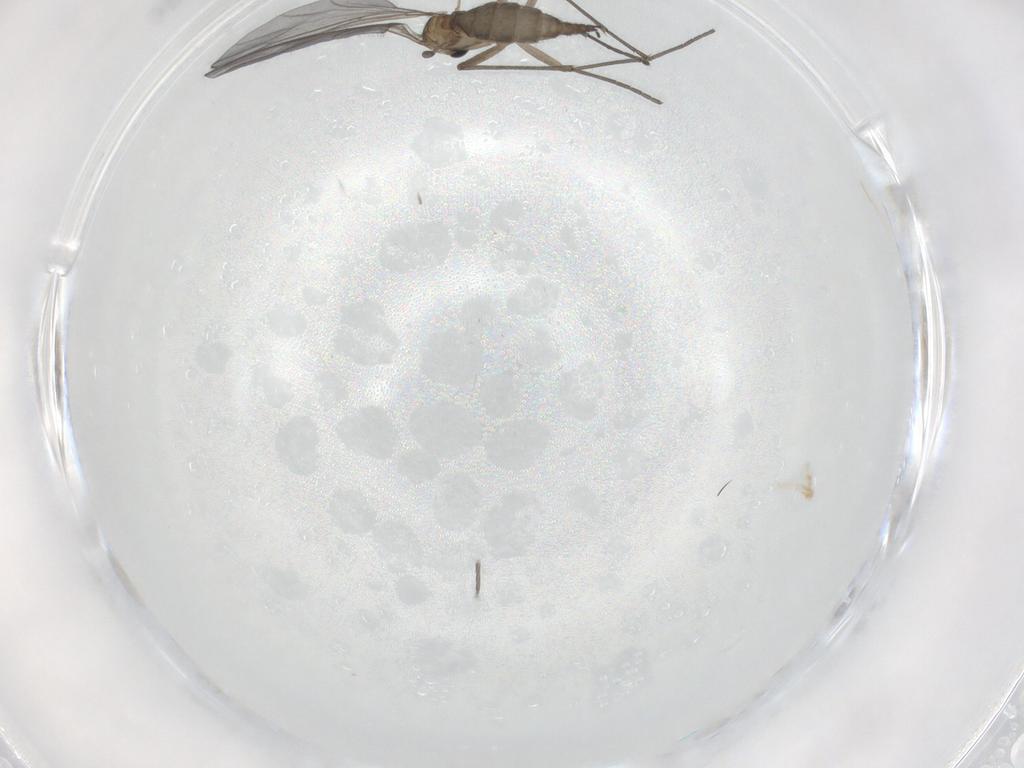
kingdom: Animalia
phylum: Arthropoda
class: Insecta
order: Diptera
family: Sciaridae
